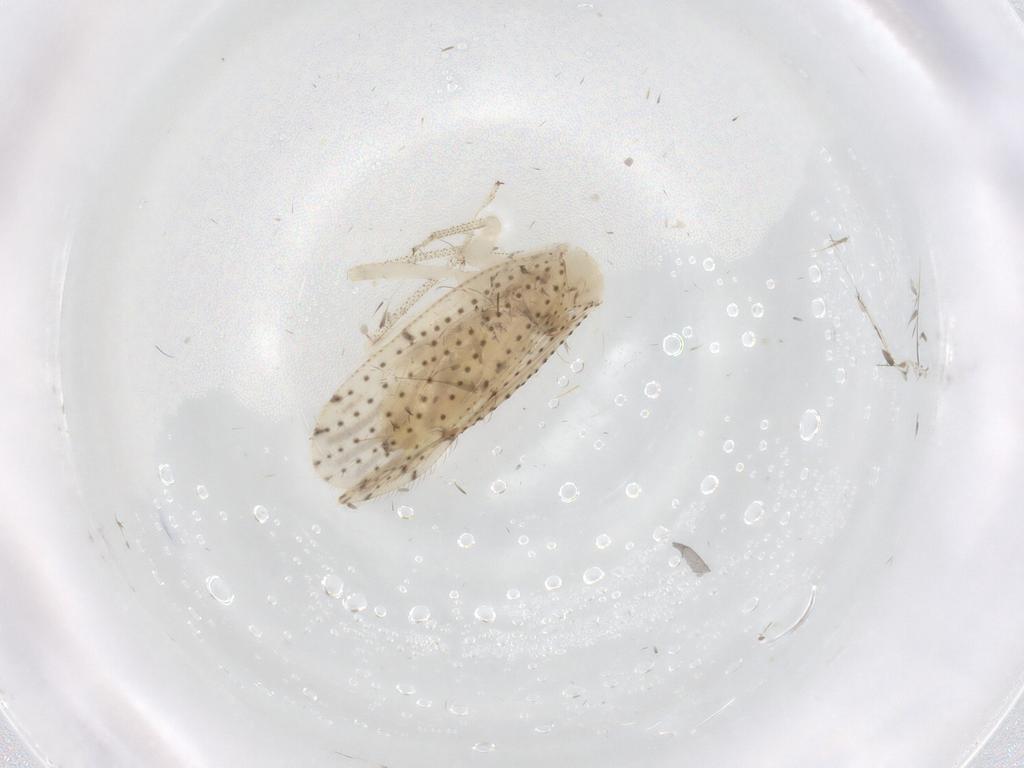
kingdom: Animalia
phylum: Arthropoda
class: Insecta
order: Psocodea
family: Myopsocidae
